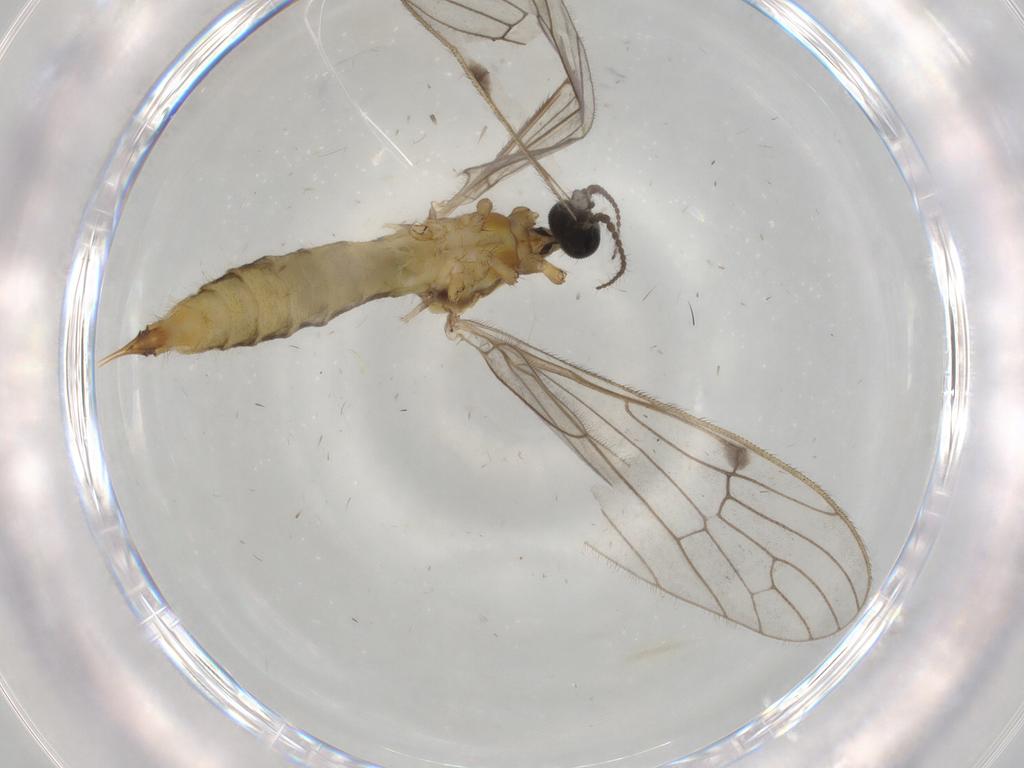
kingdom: Animalia
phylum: Arthropoda
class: Insecta
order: Diptera
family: Limoniidae
